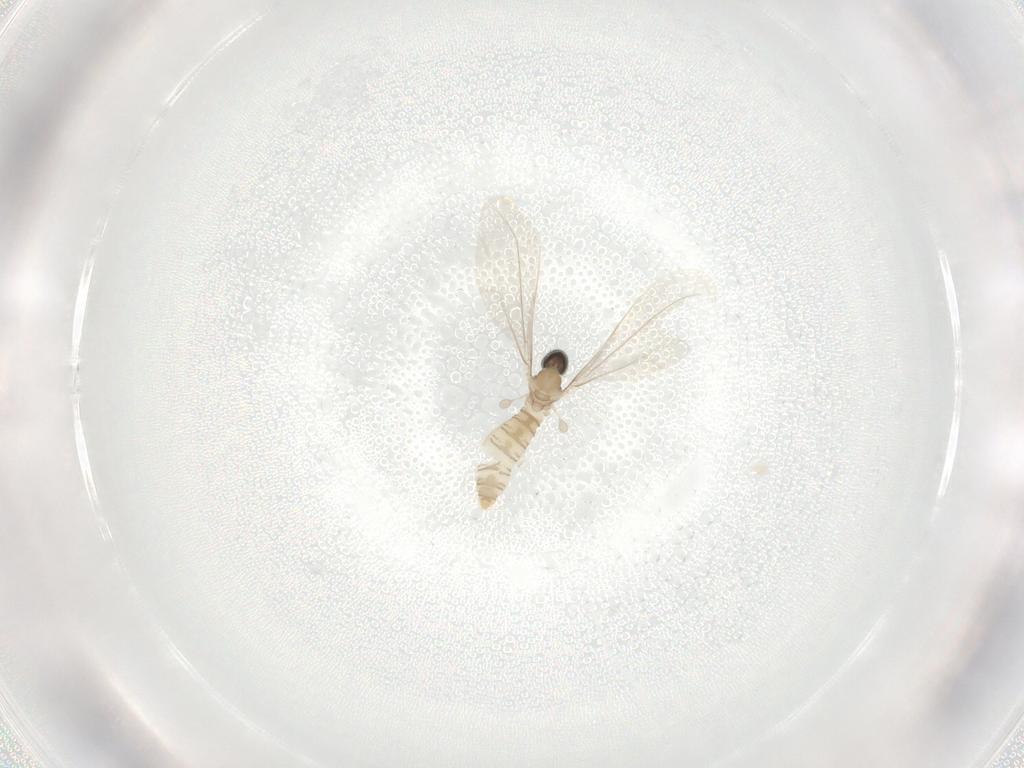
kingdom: Animalia
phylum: Arthropoda
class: Insecta
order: Diptera
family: Cecidomyiidae
